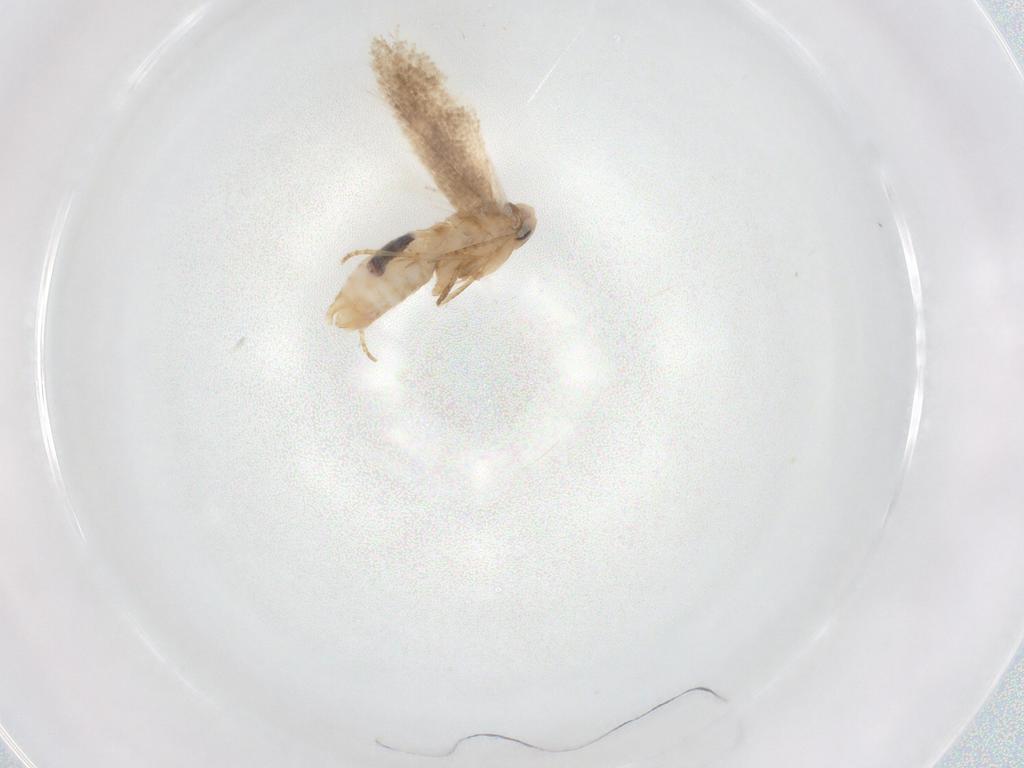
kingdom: Animalia
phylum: Arthropoda
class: Insecta
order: Lepidoptera
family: Bucculatricidae
